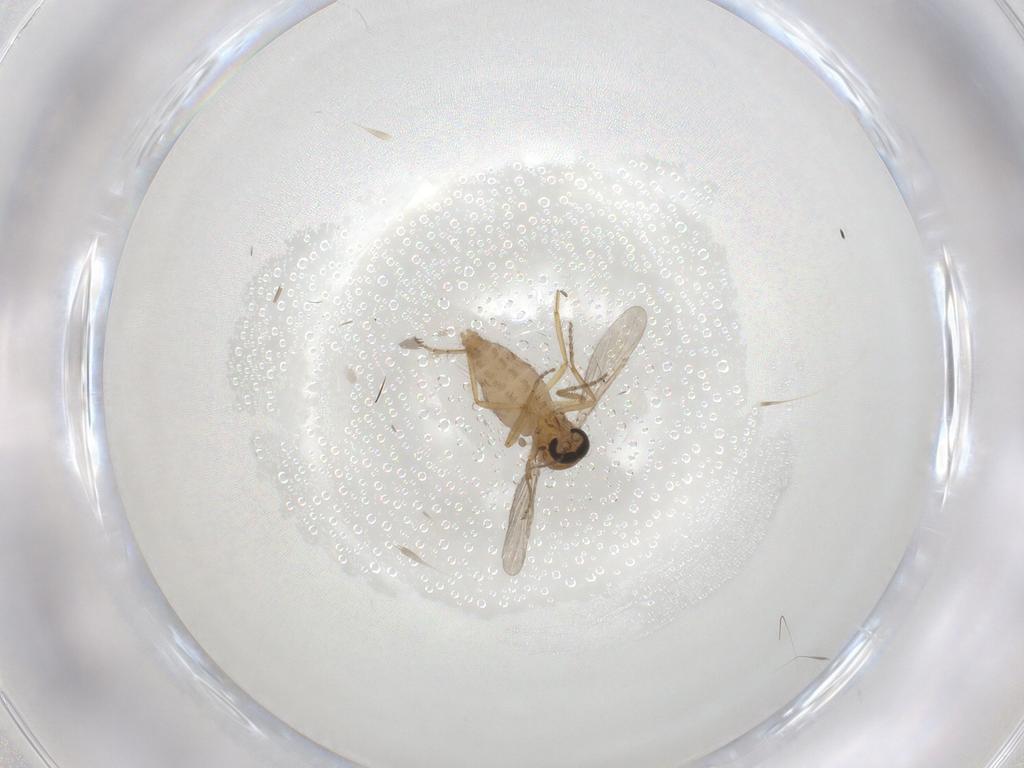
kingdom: Animalia
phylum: Arthropoda
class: Insecta
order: Diptera
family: Ceratopogonidae
